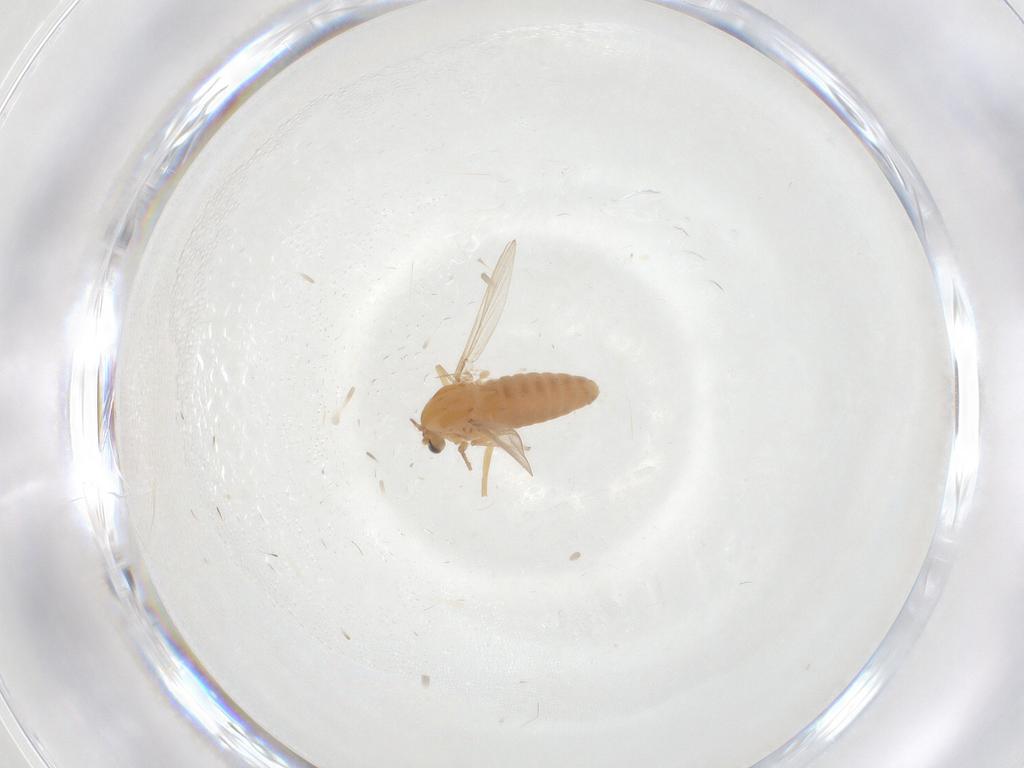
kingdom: Animalia
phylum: Arthropoda
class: Insecta
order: Diptera
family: Chironomidae
